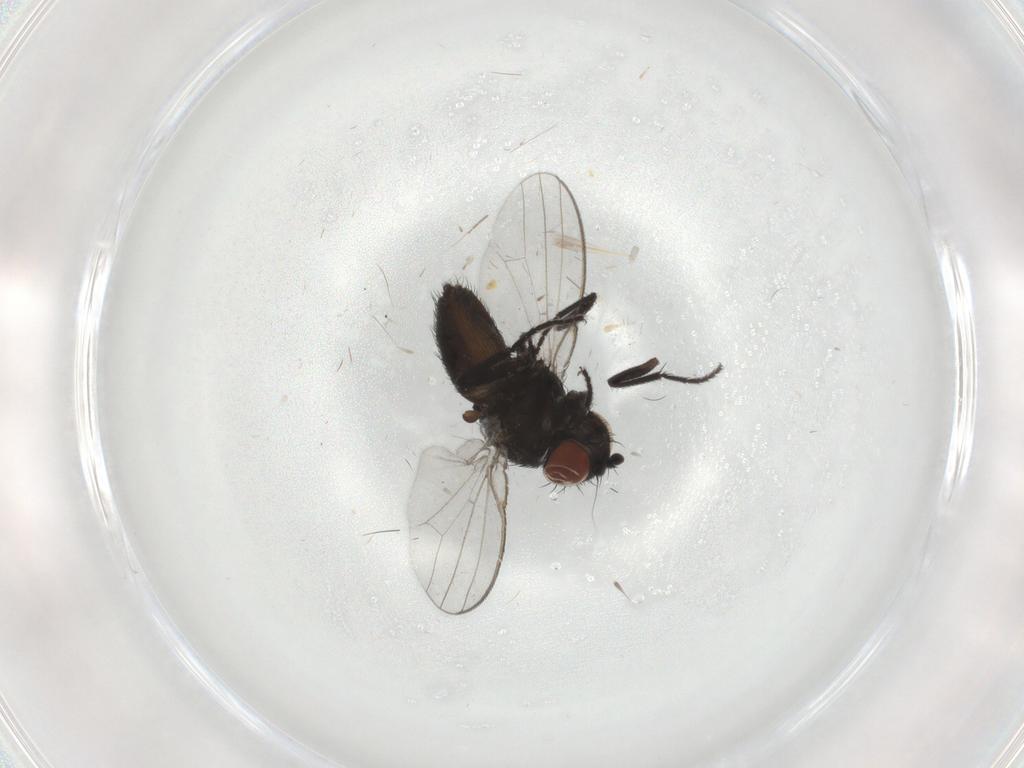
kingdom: Animalia
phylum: Arthropoda
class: Insecta
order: Diptera
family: Milichiidae
